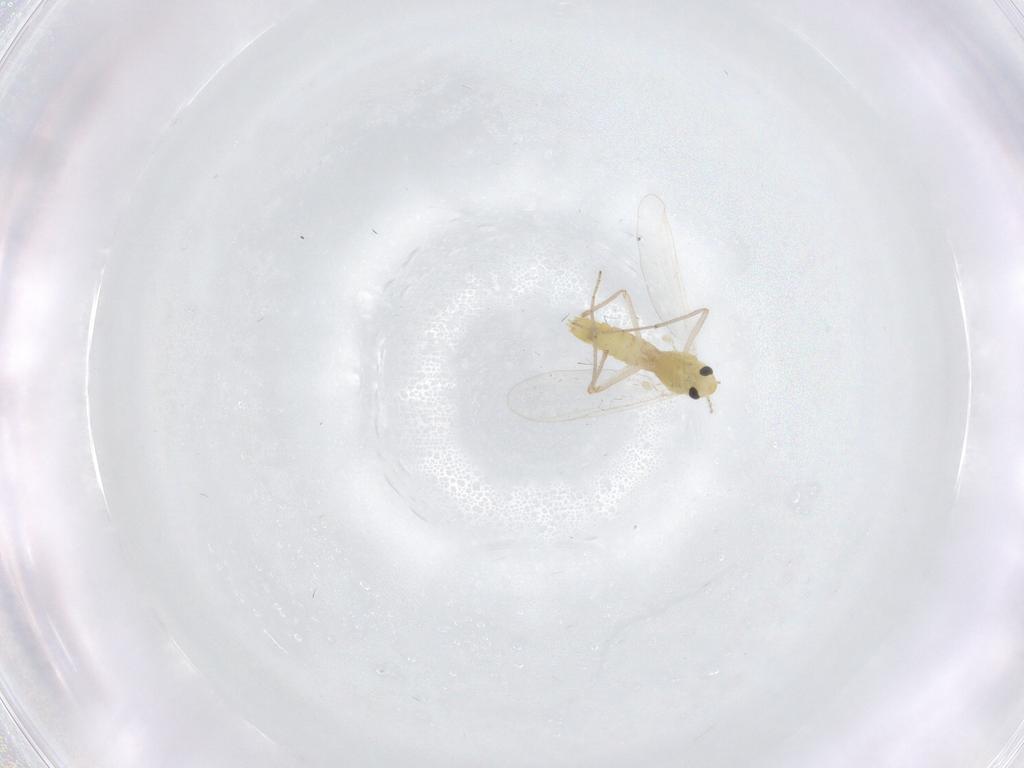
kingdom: Animalia
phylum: Arthropoda
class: Insecta
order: Diptera
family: Chironomidae
